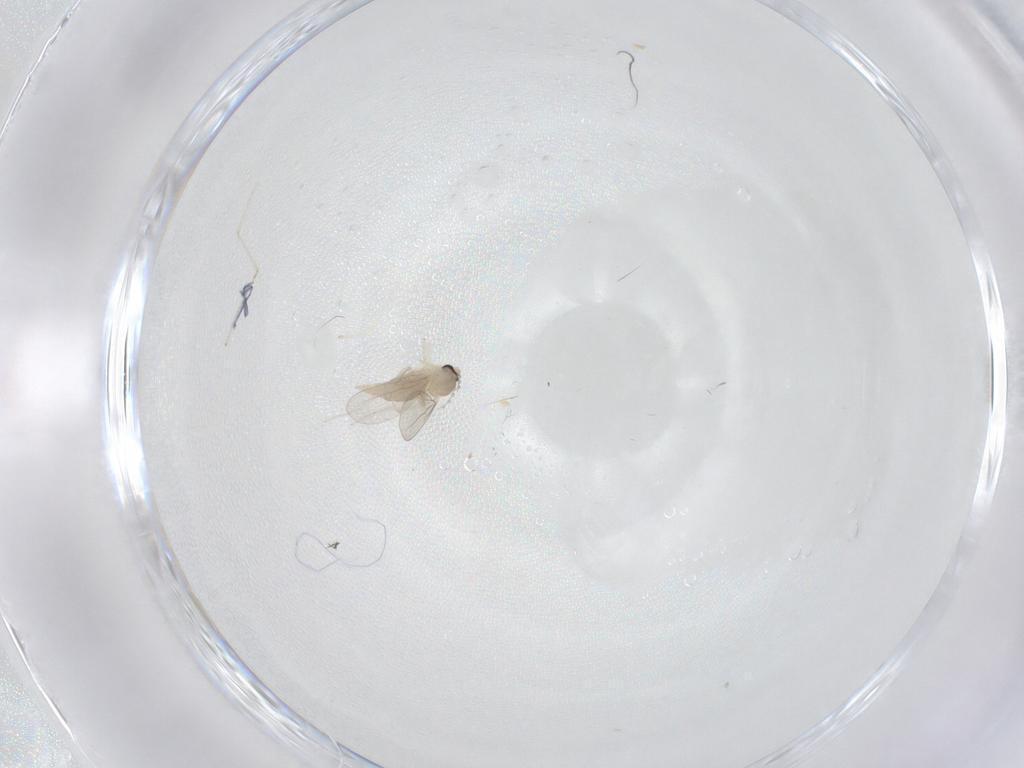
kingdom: Animalia
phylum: Arthropoda
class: Insecta
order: Diptera
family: Cecidomyiidae
